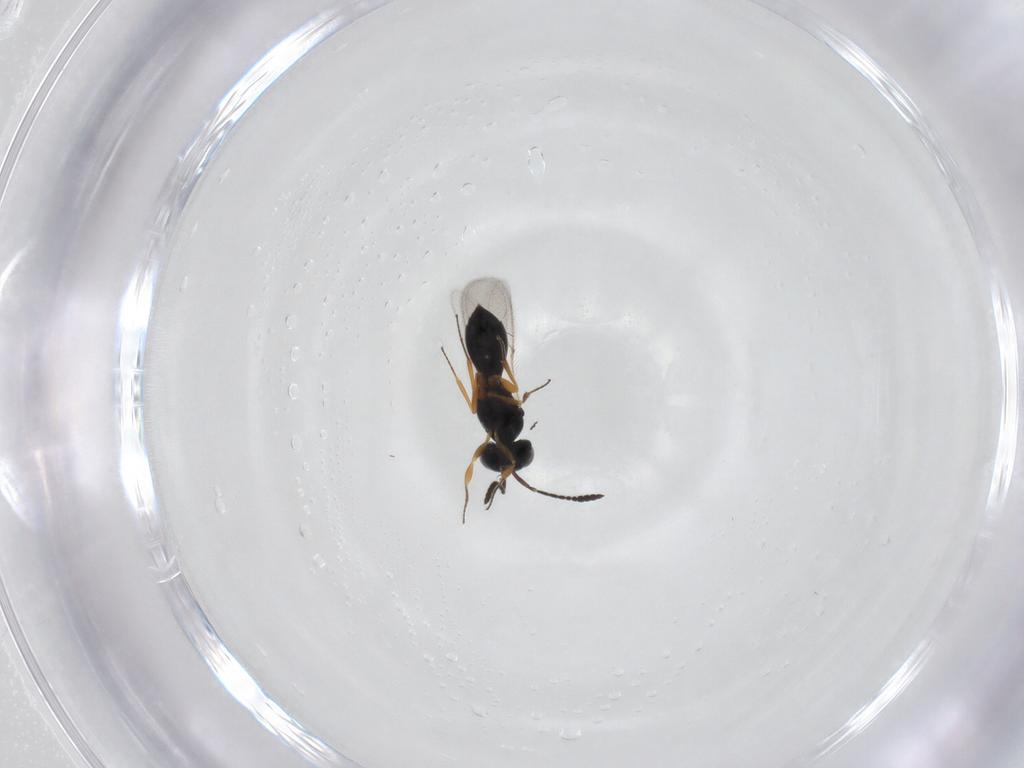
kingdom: Animalia
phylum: Arthropoda
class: Insecta
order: Hymenoptera
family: Scelionidae
